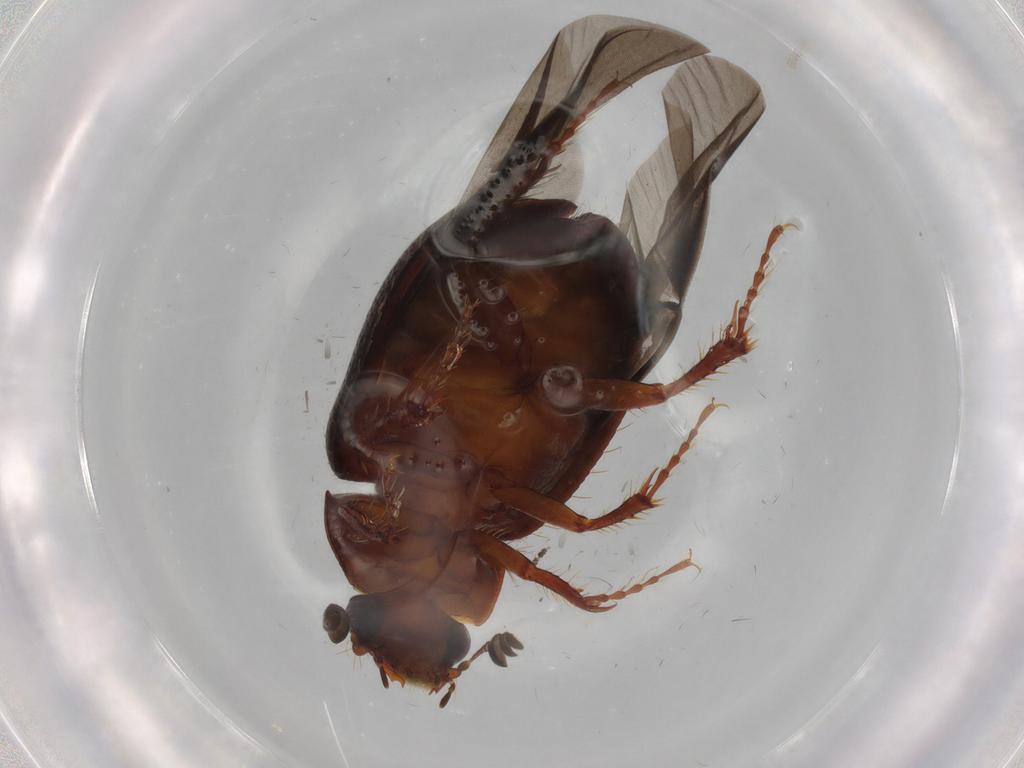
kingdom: Animalia
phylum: Arthropoda
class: Insecta
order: Coleoptera
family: Hybosoridae
